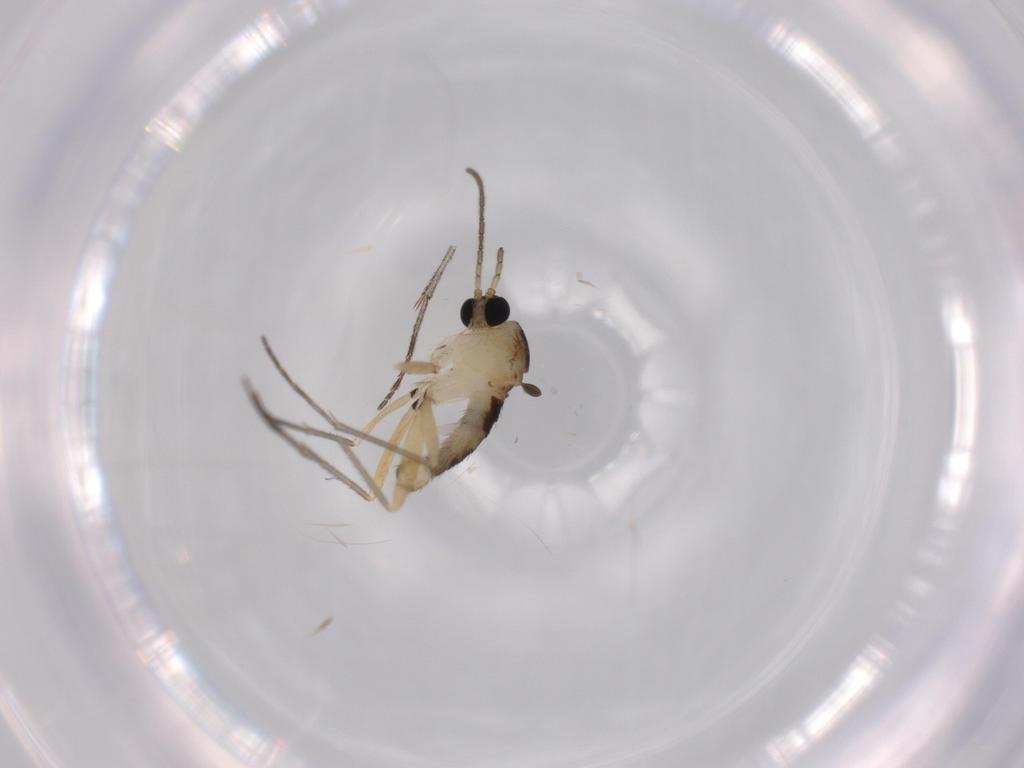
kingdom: Animalia
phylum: Arthropoda
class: Insecta
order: Diptera
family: Sciaridae
